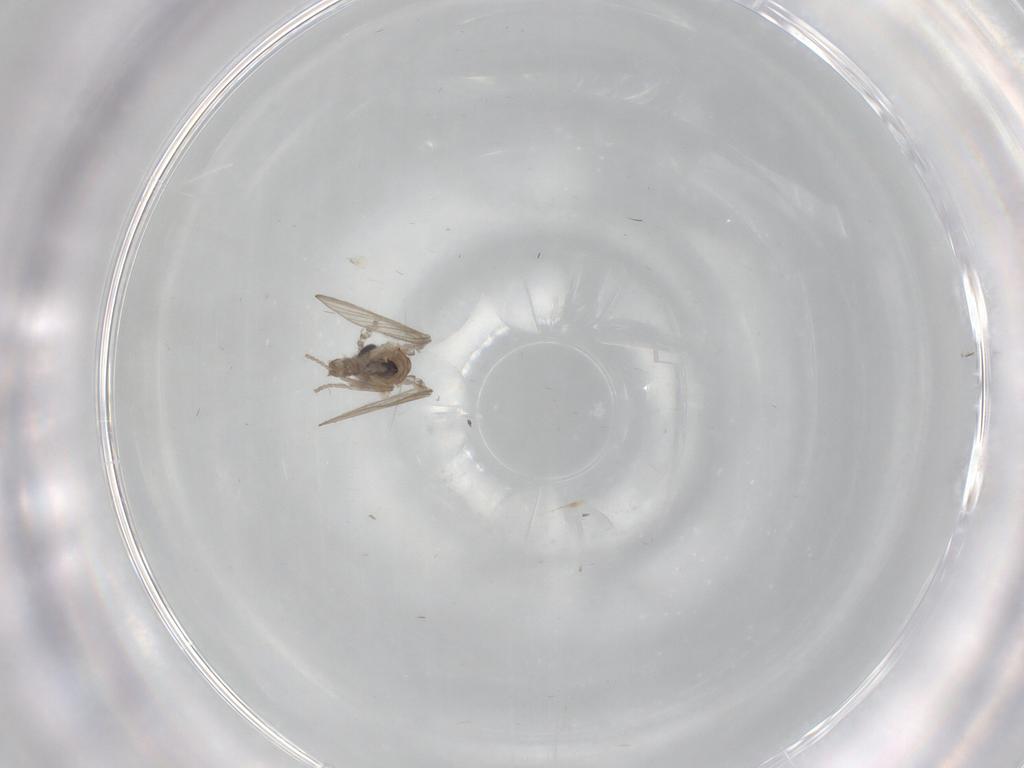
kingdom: Animalia
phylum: Arthropoda
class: Insecta
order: Diptera
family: Psychodidae
